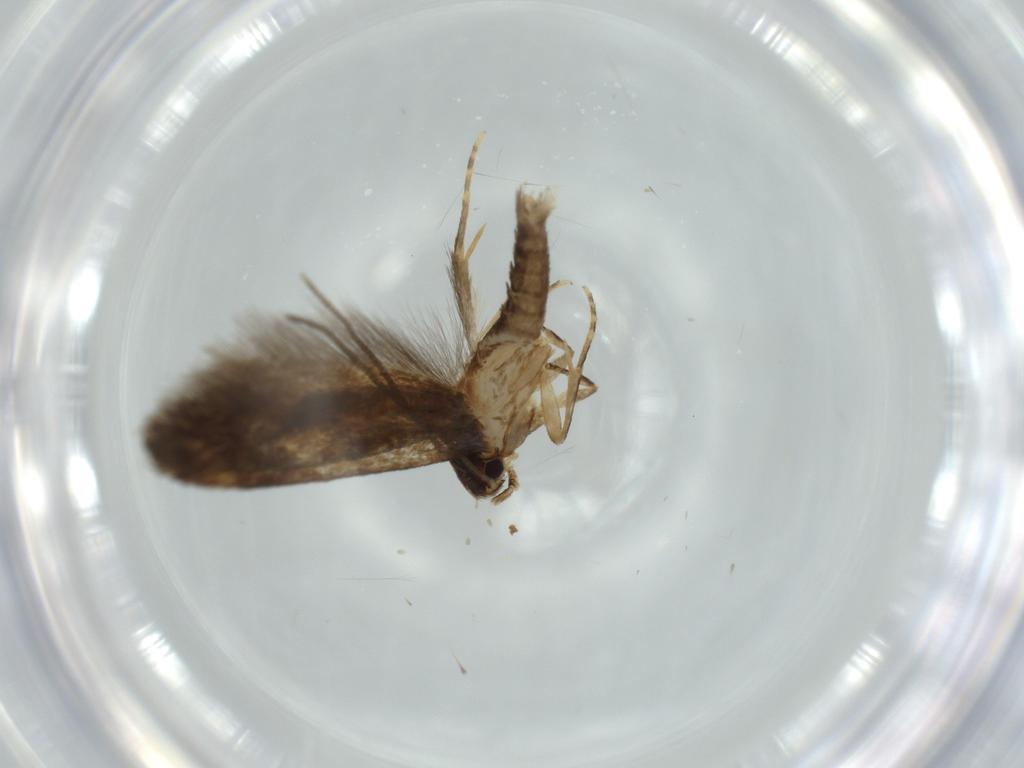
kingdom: Animalia
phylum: Arthropoda
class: Insecta
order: Lepidoptera
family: Tineidae
